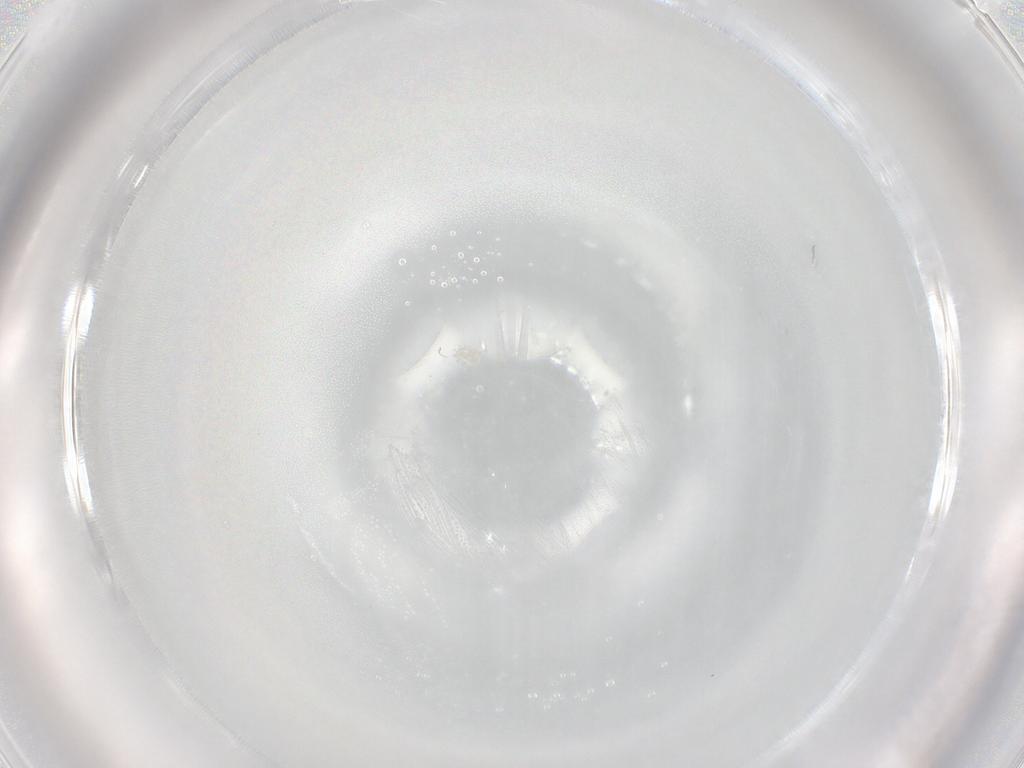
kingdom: Animalia
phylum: Arthropoda
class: Insecta
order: Hymenoptera
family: Mymaridae
